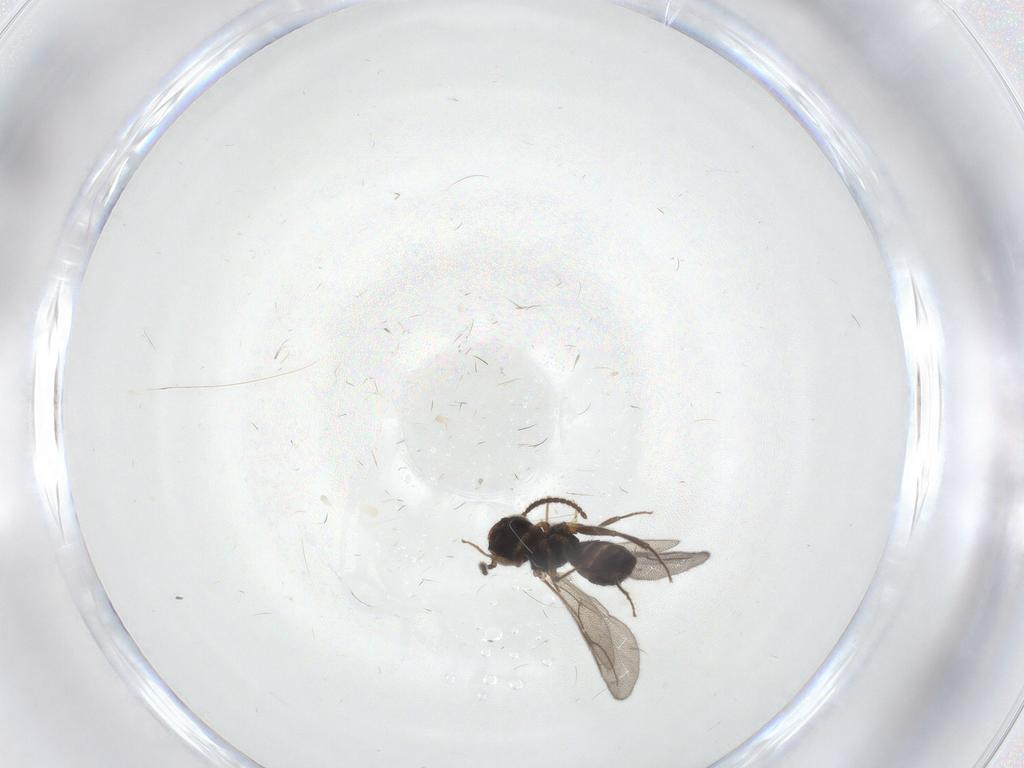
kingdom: Animalia
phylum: Arthropoda
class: Insecta
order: Hymenoptera
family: Bethylidae
